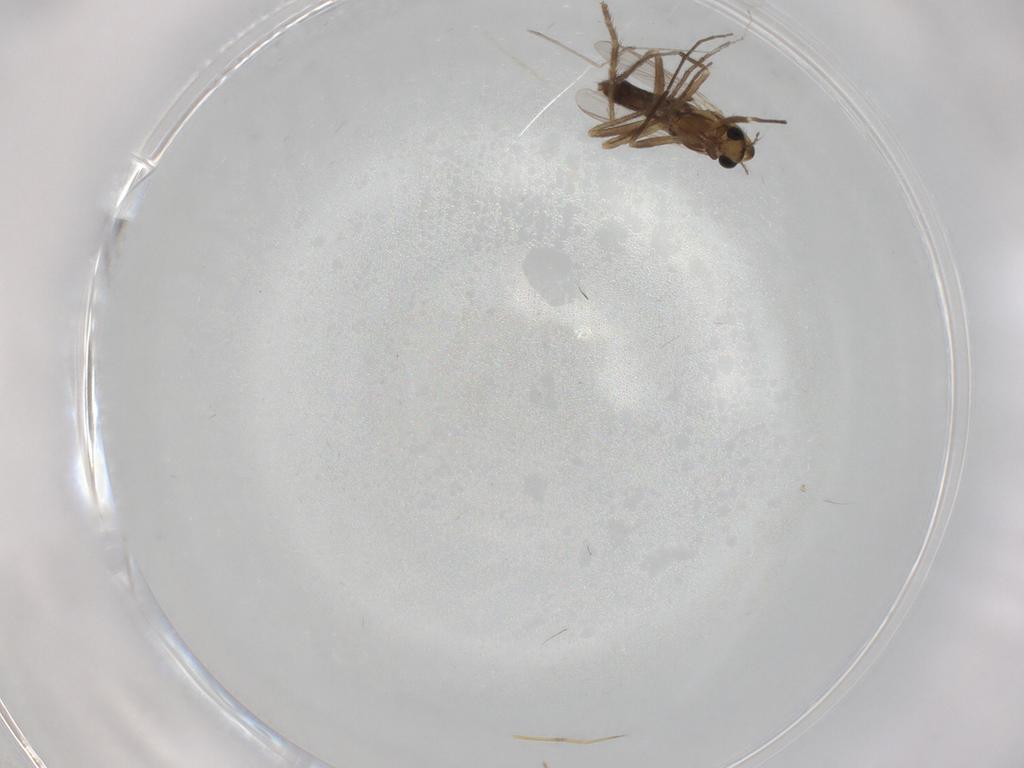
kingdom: Animalia
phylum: Arthropoda
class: Insecta
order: Diptera
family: Chironomidae
